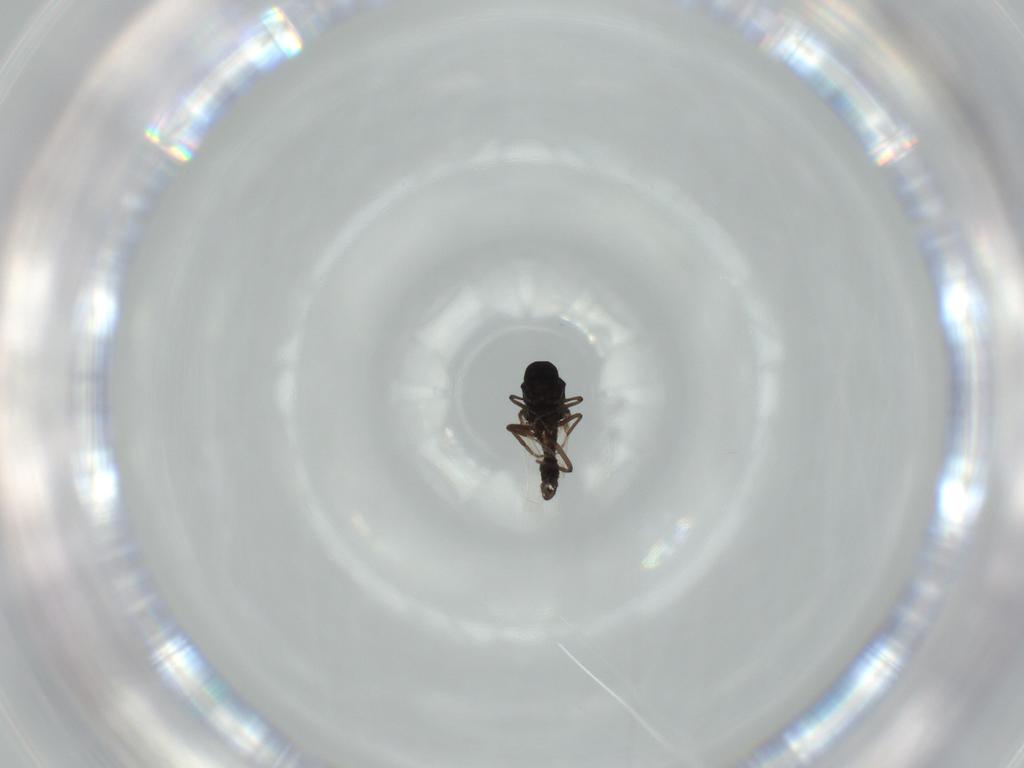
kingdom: Animalia
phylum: Arthropoda
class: Insecta
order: Diptera
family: Ceratopogonidae
